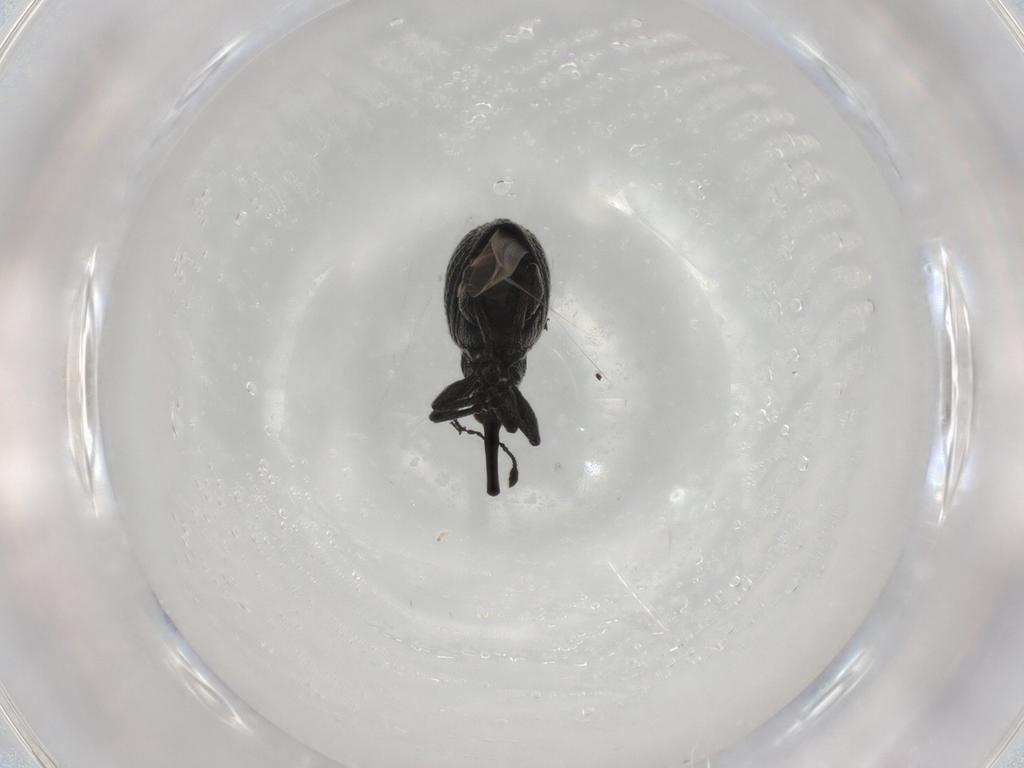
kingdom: Animalia
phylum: Arthropoda
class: Insecta
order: Coleoptera
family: Brentidae
